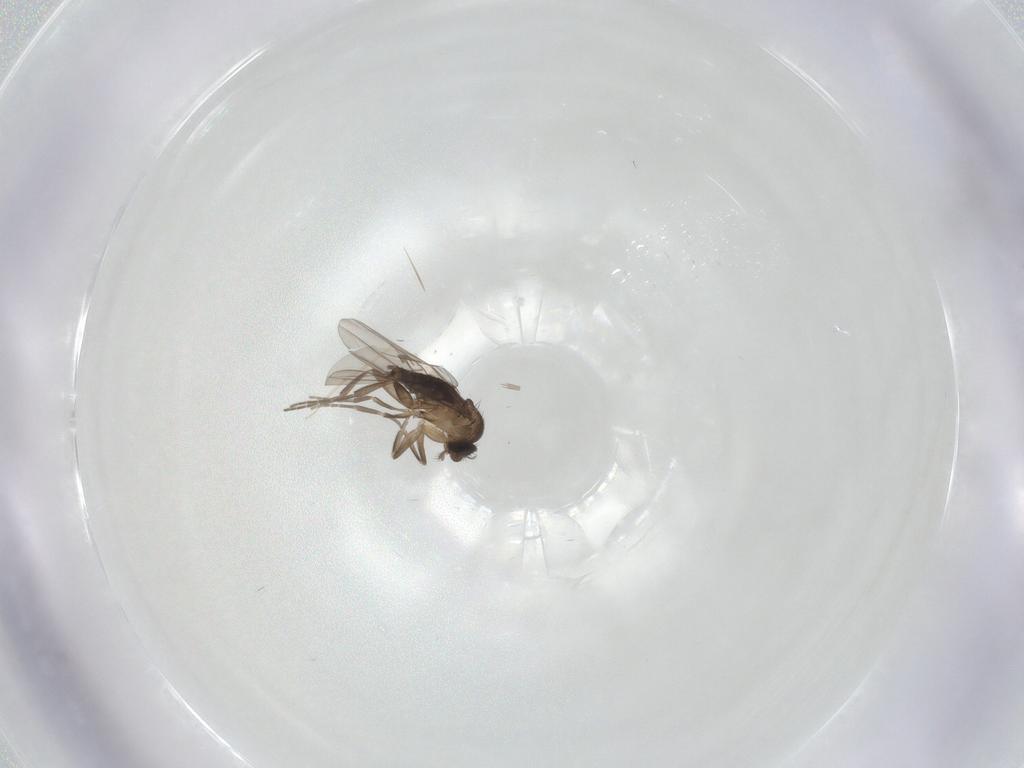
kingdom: Animalia
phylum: Arthropoda
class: Insecta
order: Diptera
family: Phoridae
